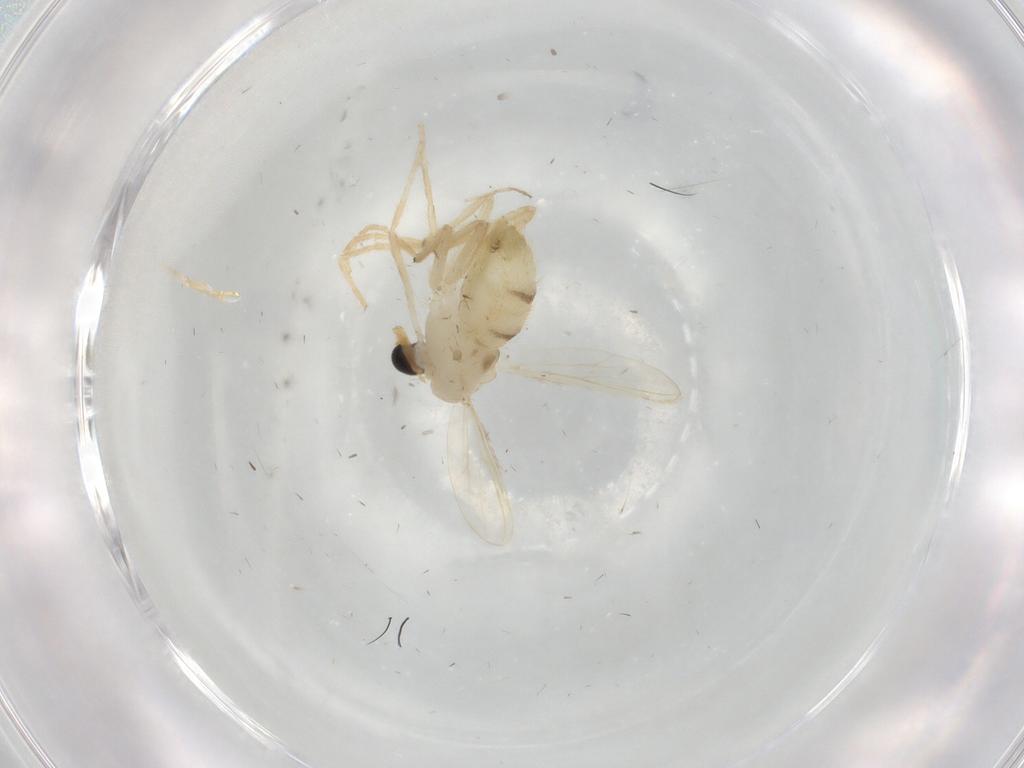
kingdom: Animalia
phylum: Arthropoda
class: Insecta
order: Diptera
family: Chironomidae
